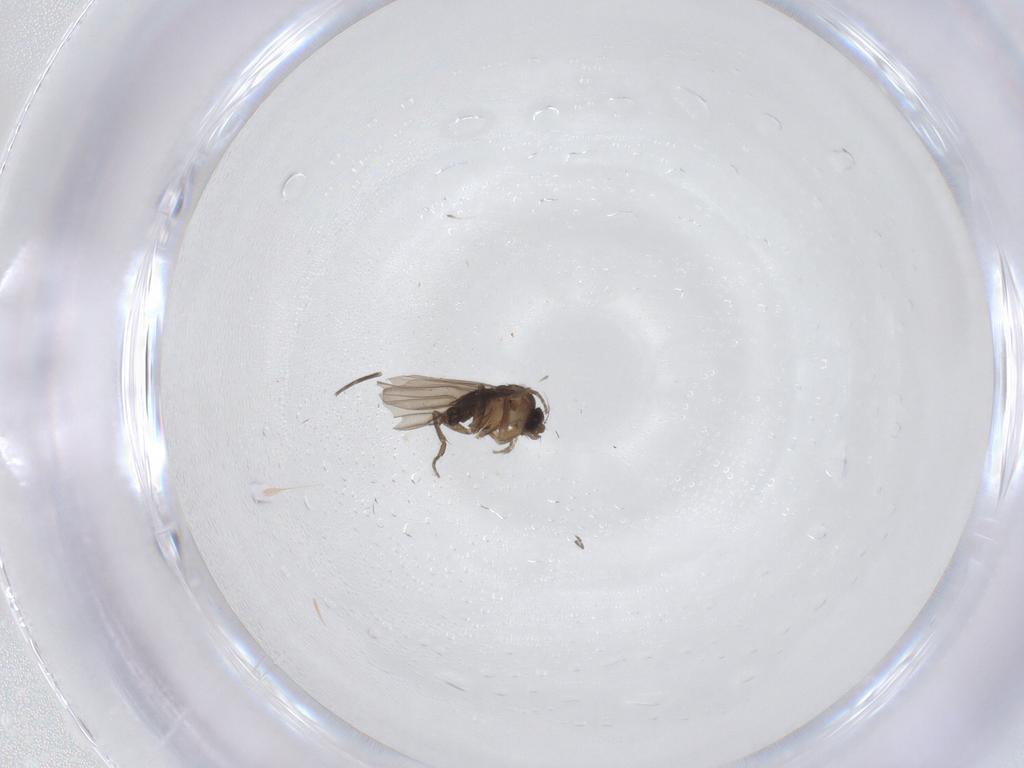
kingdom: Animalia
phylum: Arthropoda
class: Insecta
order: Diptera
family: Phoridae
